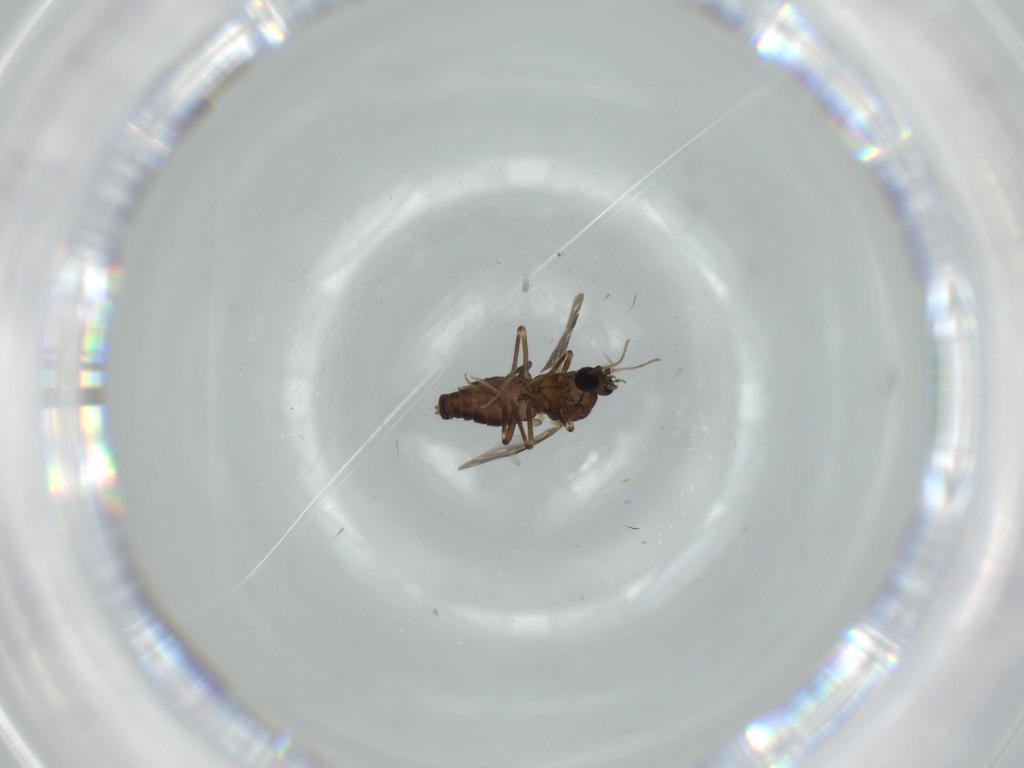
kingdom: Animalia
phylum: Arthropoda
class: Insecta
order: Diptera
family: Ceratopogonidae
